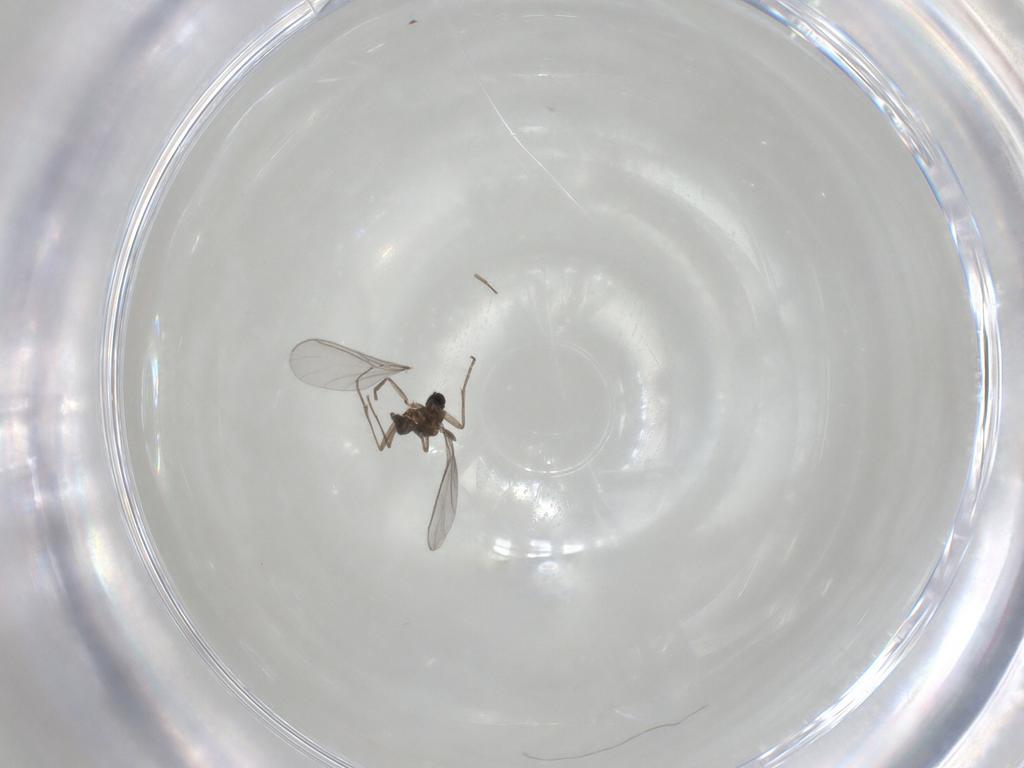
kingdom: Animalia
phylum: Arthropoda
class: Insecta
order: Diptera
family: Sciaridae
